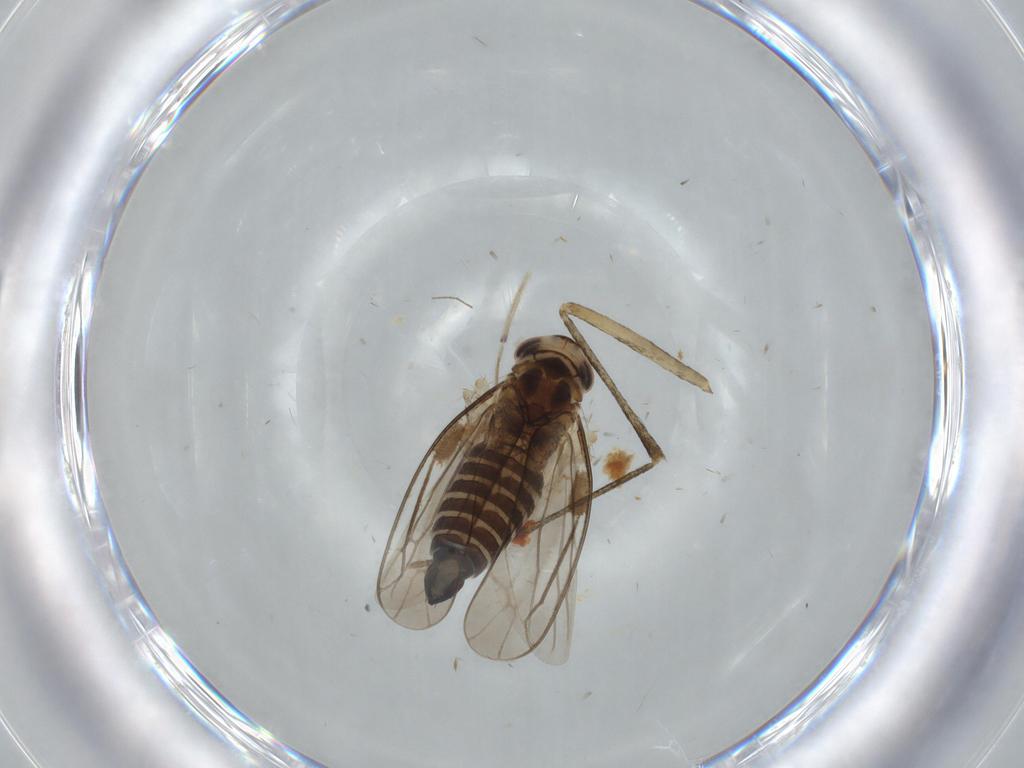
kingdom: Animalia
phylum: Arthropoda
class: Insecta
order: Hemiptera
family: Cicadellidae
